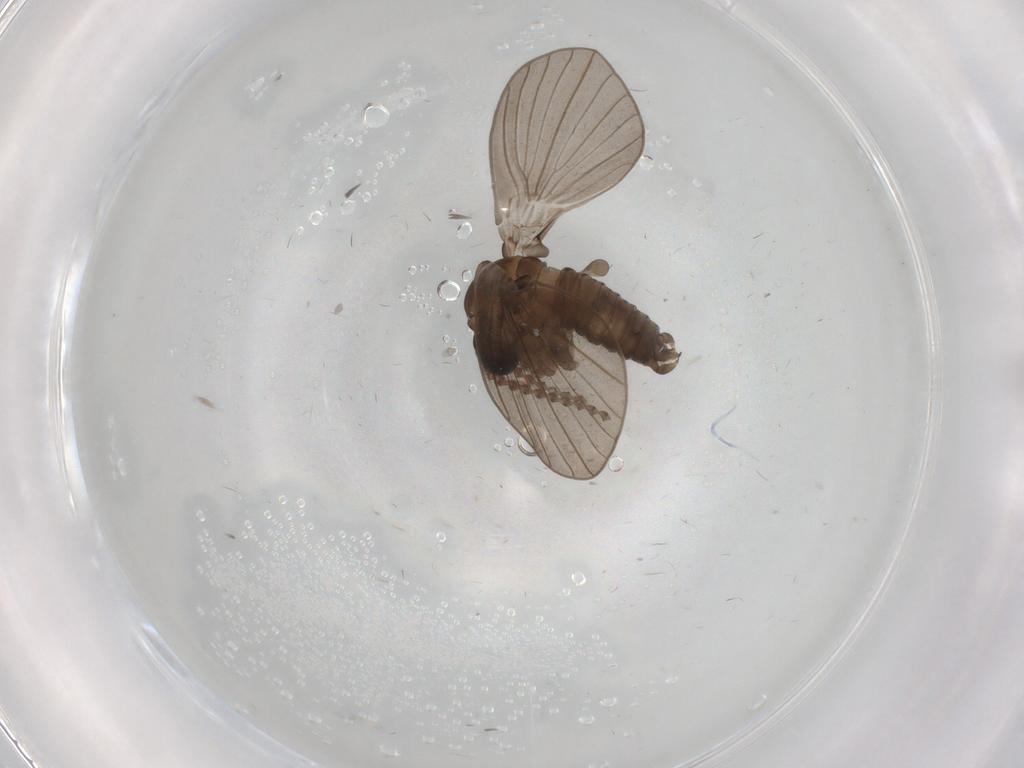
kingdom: Animalia
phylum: Arthropoda
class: Insecta
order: Diptera
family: Psychodidae
